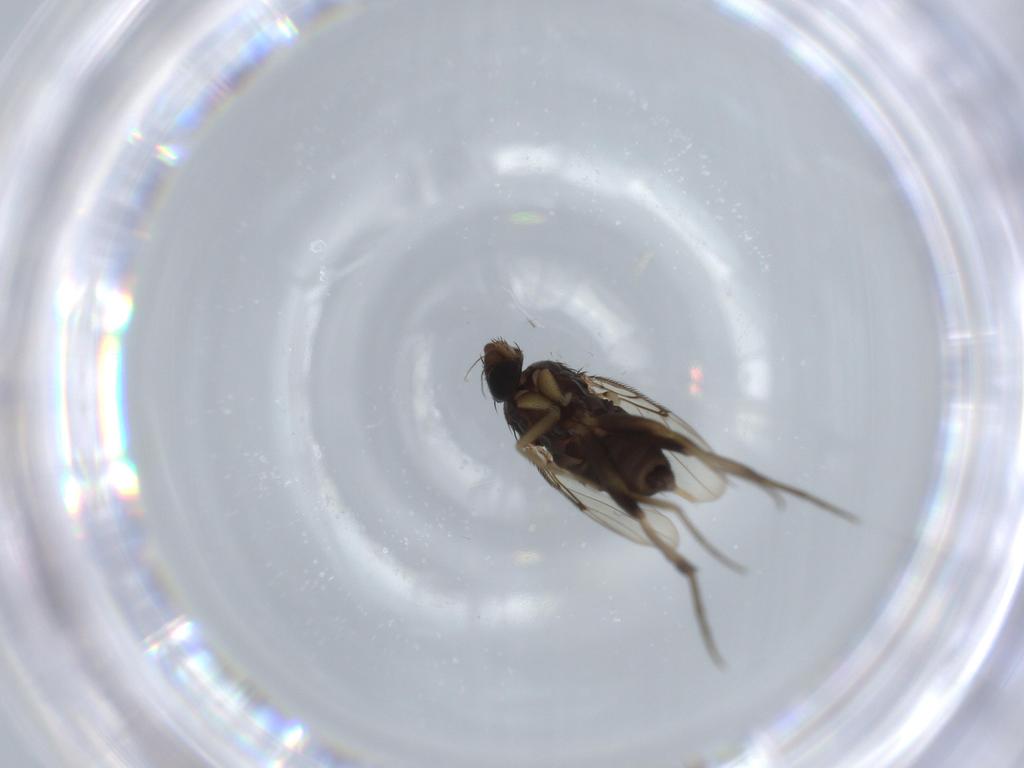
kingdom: Animalia
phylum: Arthropoda
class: Insecta
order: Diptera
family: Phoridae
